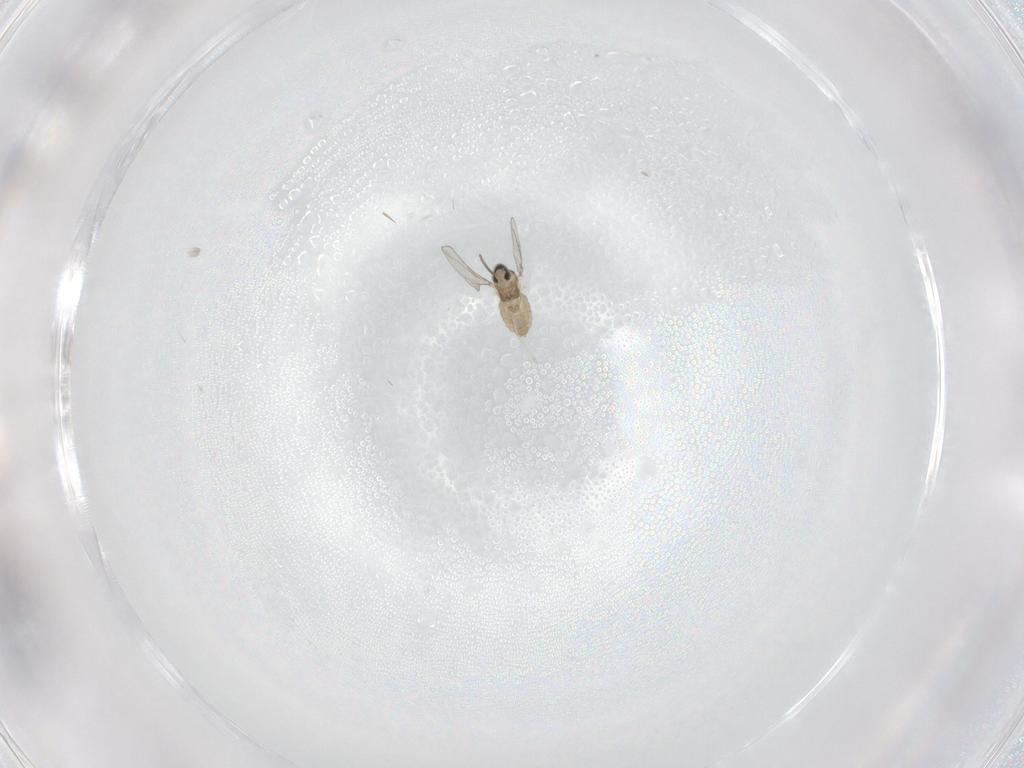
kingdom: Animalia
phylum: Arthropoda
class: Insecta
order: Diptera
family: Cecidomyiidae
